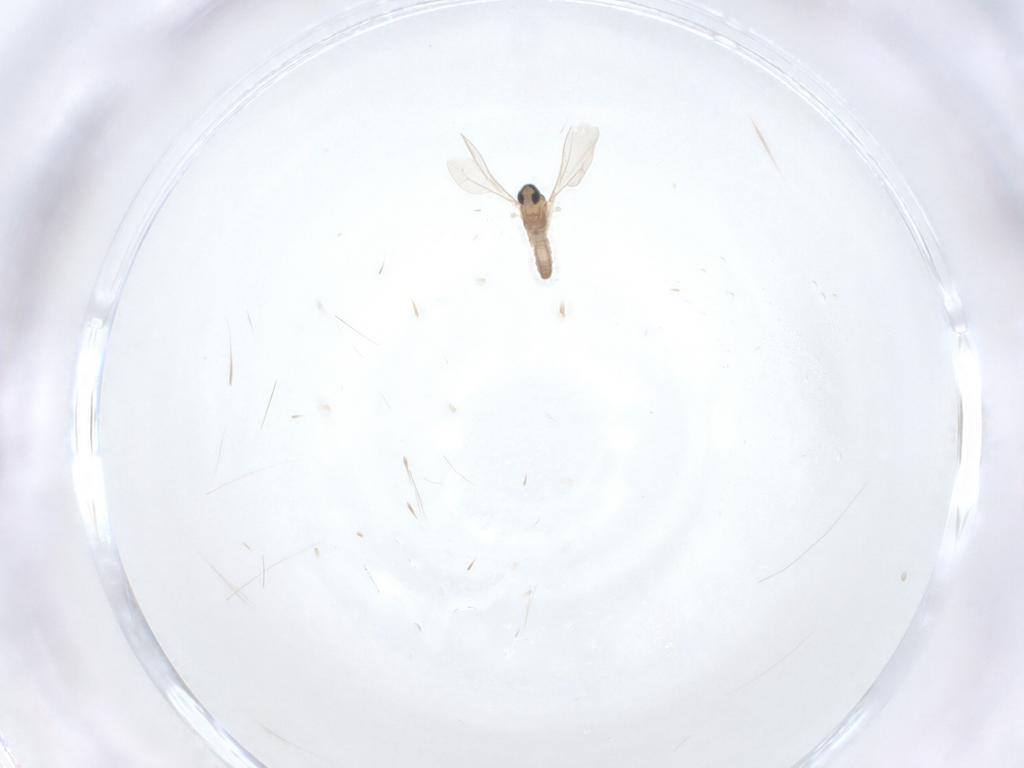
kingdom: Animalia
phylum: Arthropoda
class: Insecta
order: Diptera
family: Cecidomyiidae
